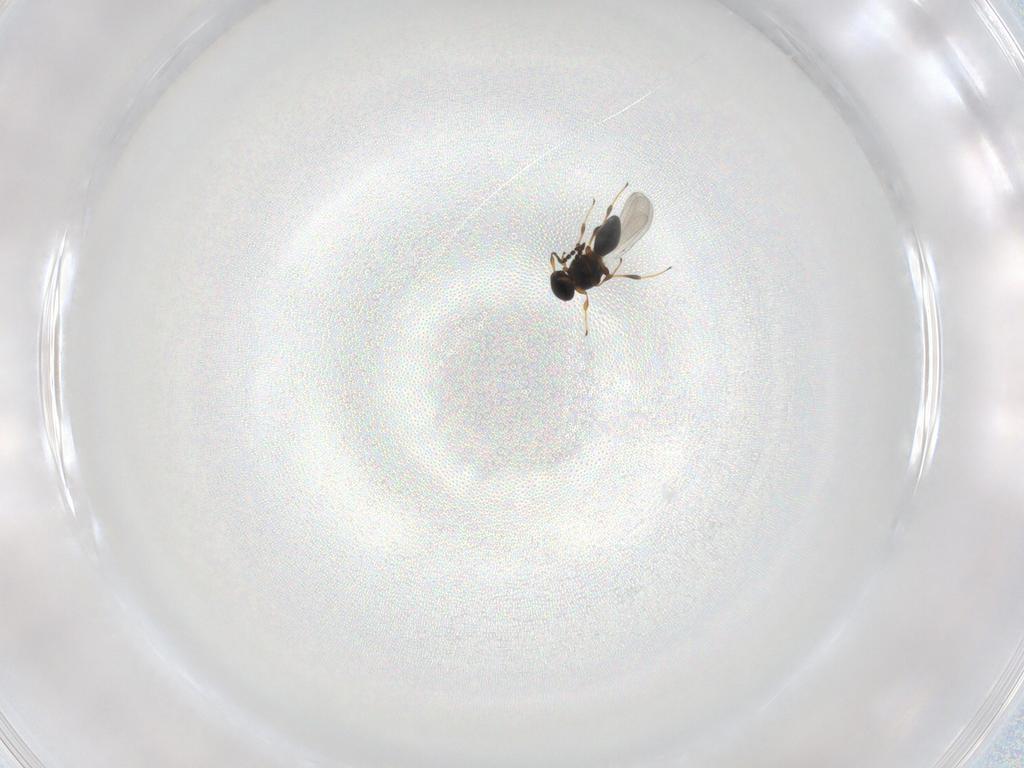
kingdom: Animalia
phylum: Arthropoda
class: Insecta
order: Hymenoptera
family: Platygastridae
